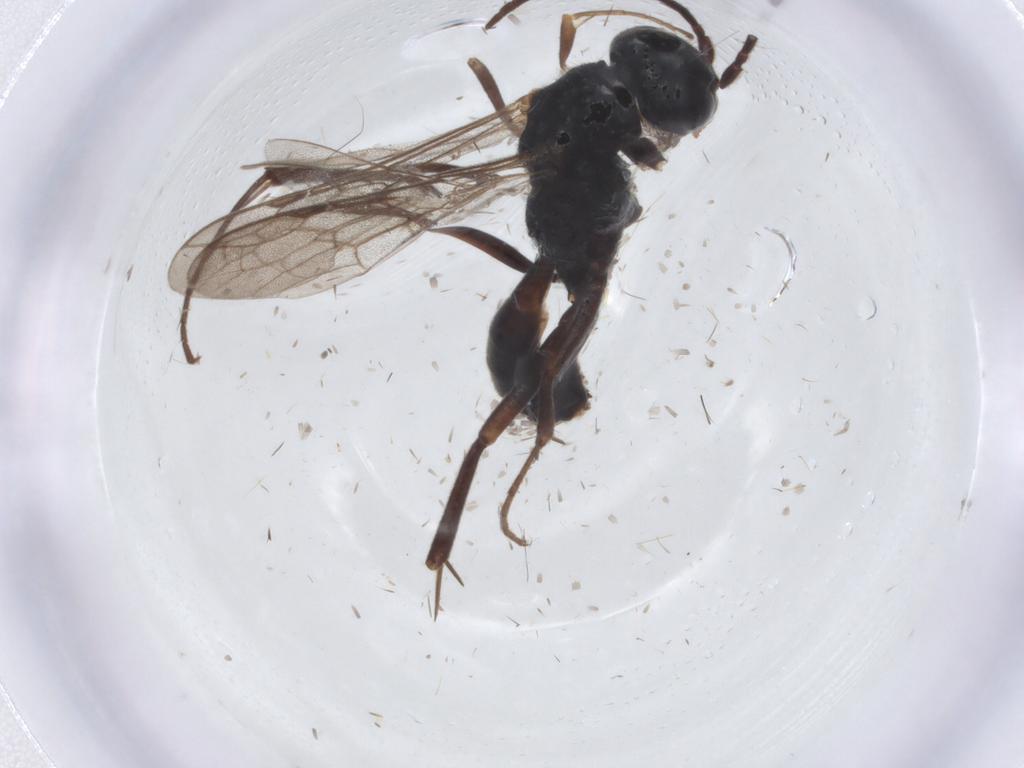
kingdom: Animalia
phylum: Arthropoda
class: Insecta
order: Hymenoptera
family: Pompilidae
